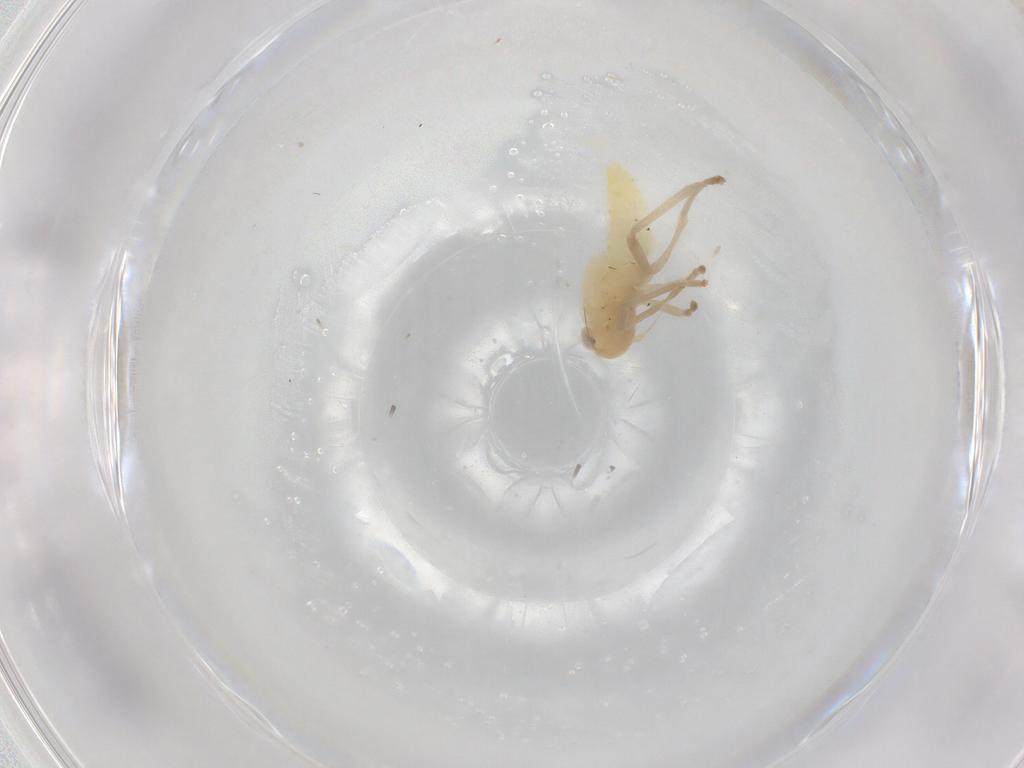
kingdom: Animalia
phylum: Arthropoda
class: Insecta
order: Hemiptera
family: Cicadellidae
